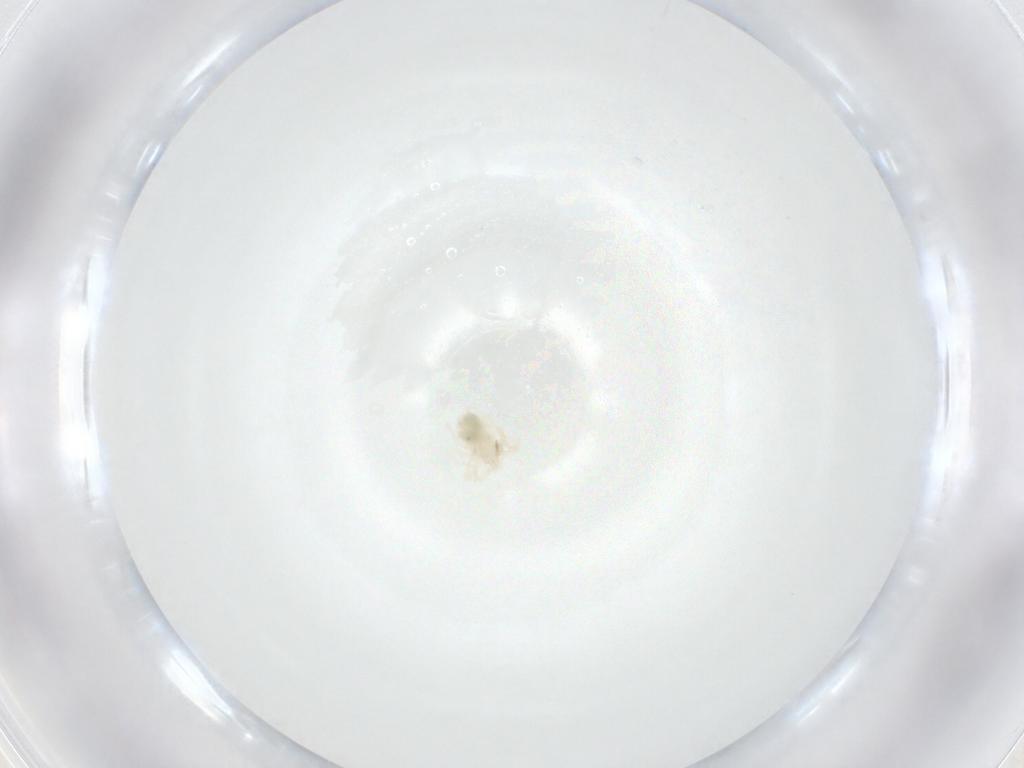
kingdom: Animalia
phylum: Arthropoda
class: Arachnida
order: Trombidiformes
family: Anystidae
